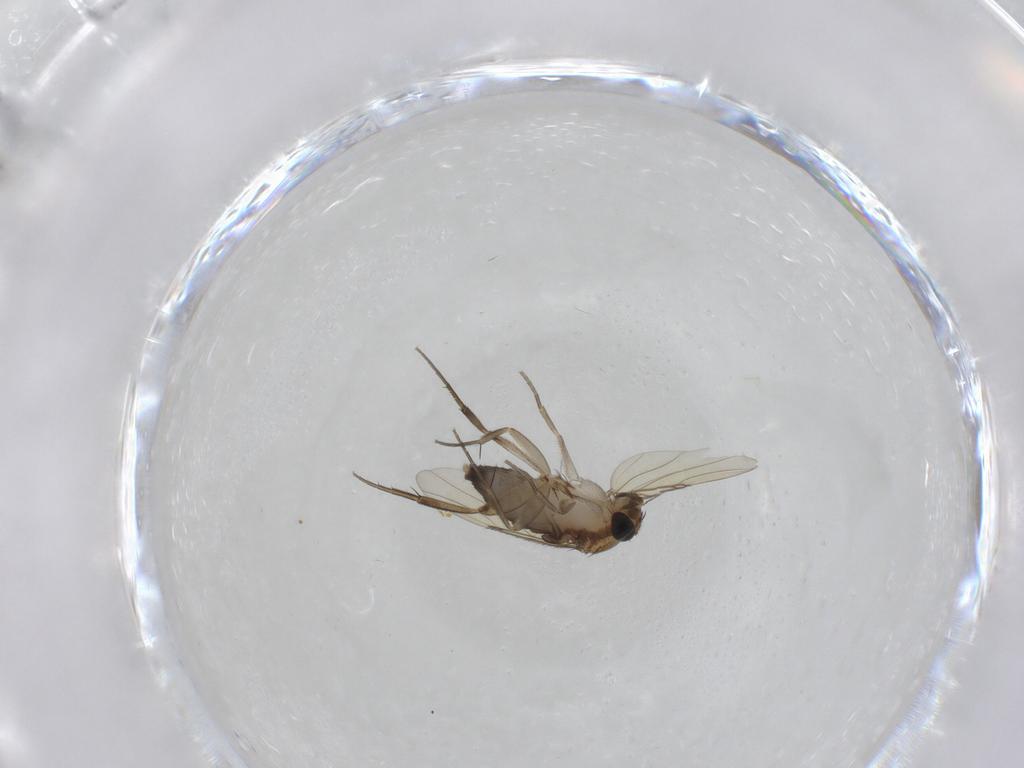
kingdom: Animalia
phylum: Arthropoda
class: Insecta
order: Diptera
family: Phoridae
